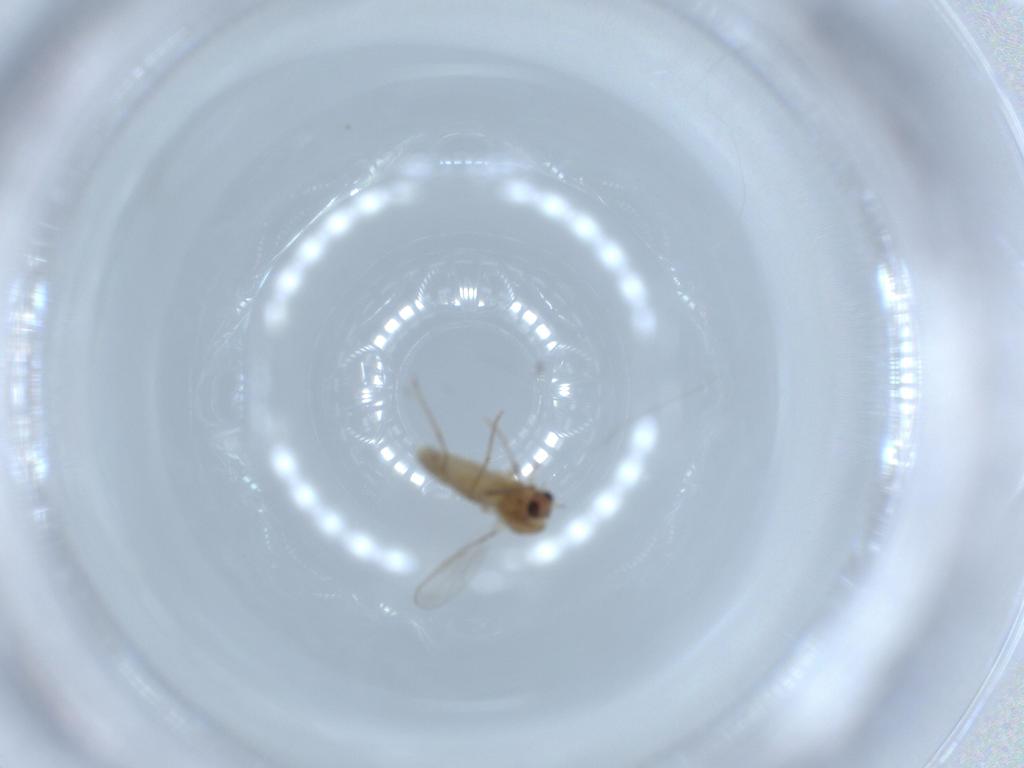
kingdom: Animalia
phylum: Arthropoda
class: Insecta
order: Diptera
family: Chironomidae
